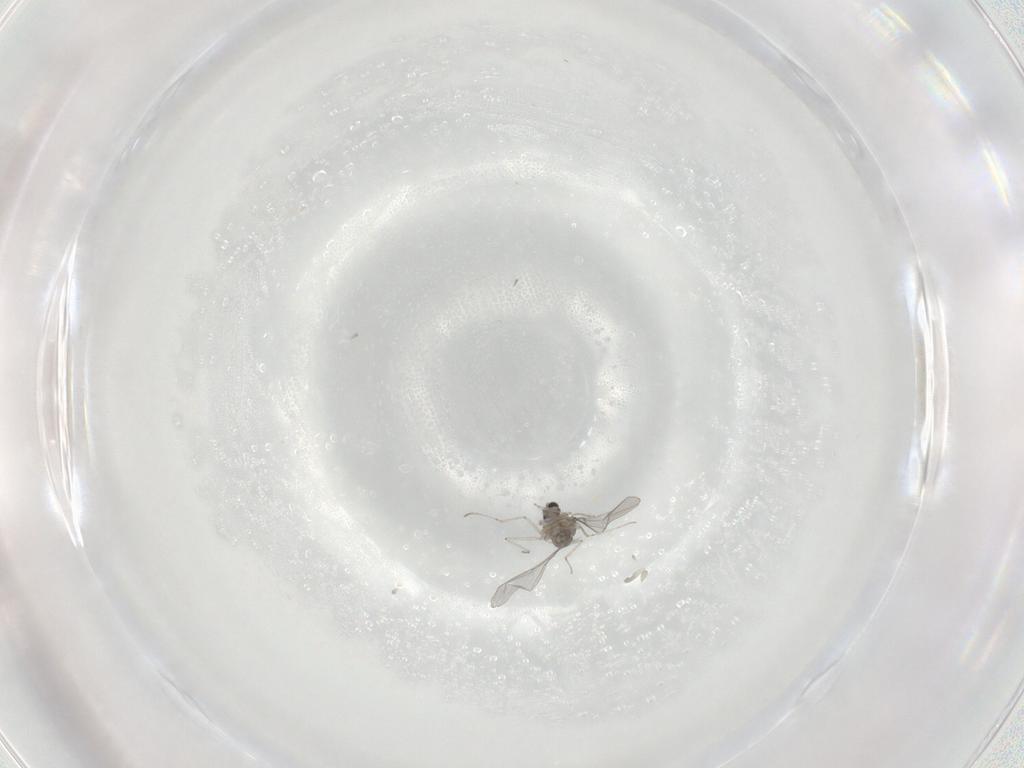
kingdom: Animalia
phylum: Arthropoda
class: Insecta
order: Diptera
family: Cecidomyiidae
